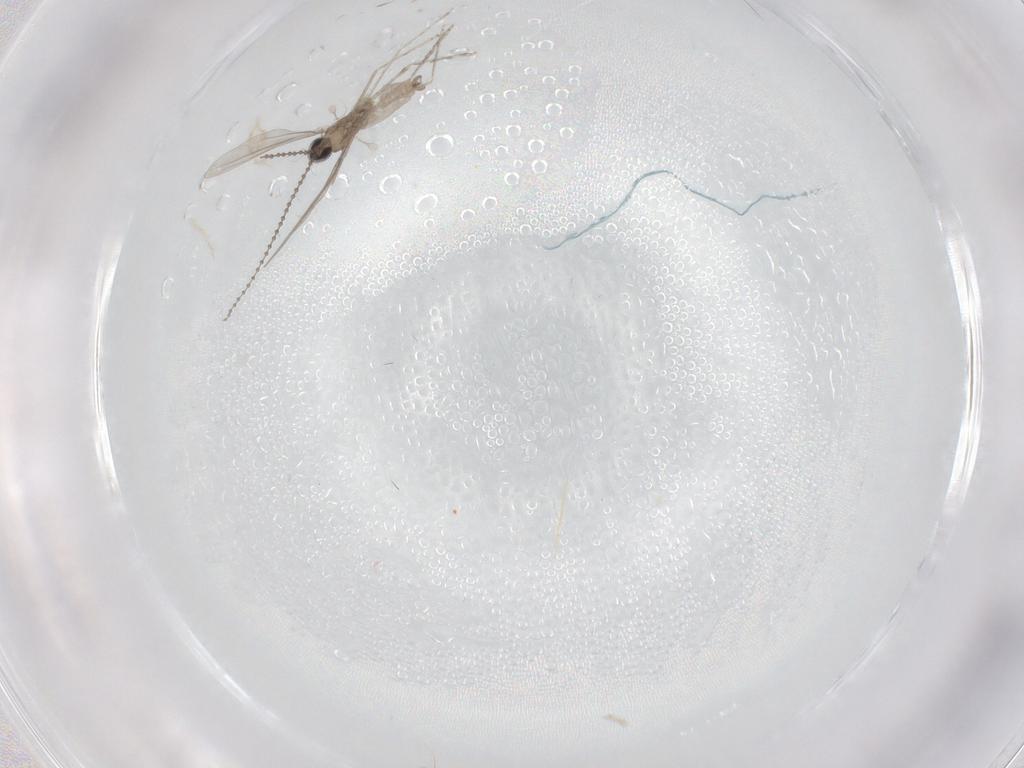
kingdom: Animalia
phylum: Arthropoda
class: Insecta
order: Diptera
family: Cecidomyiidae
